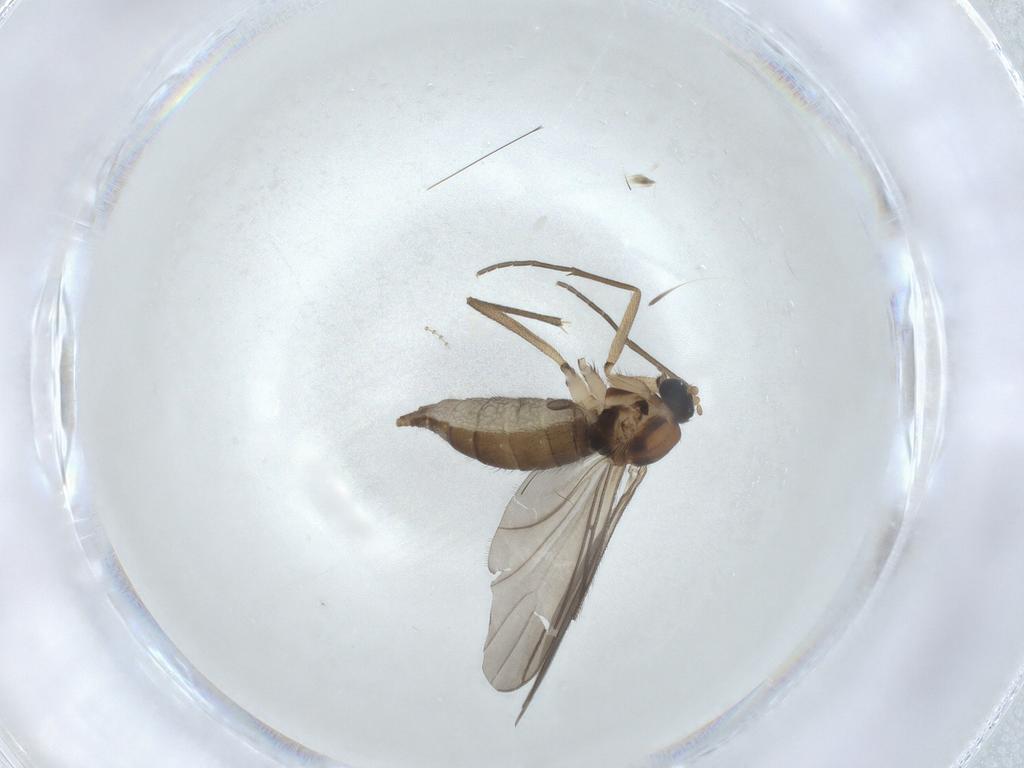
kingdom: Animalia
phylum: Arthropoda
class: Insecta
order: Diptera
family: Sciaridae
